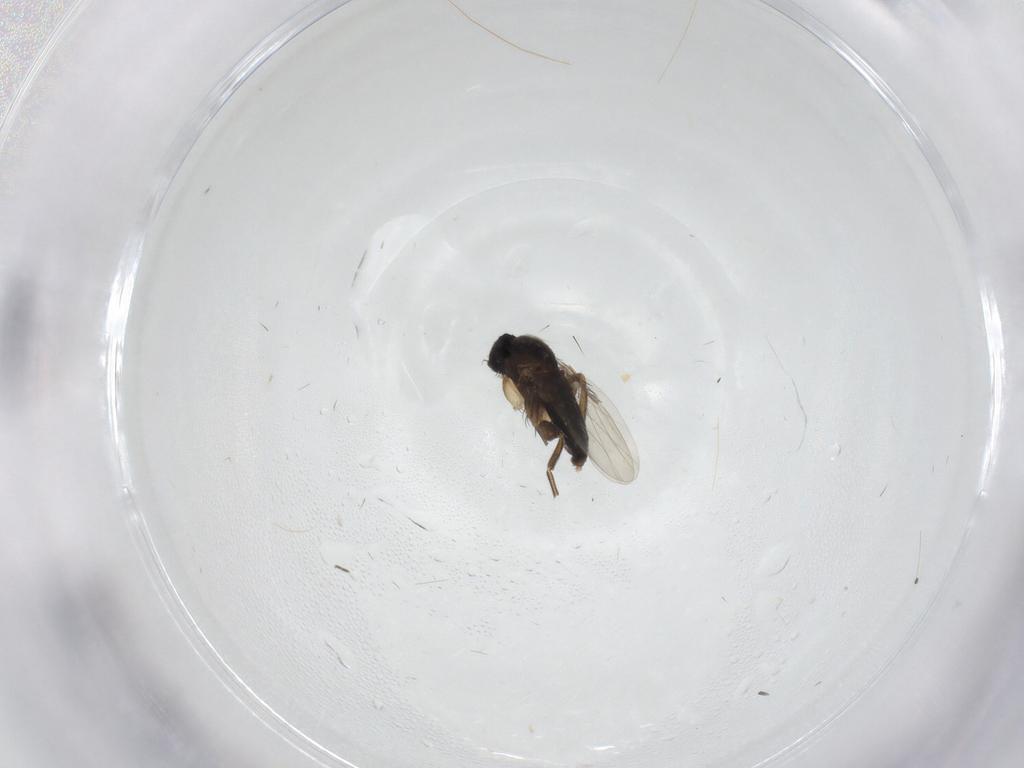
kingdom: Animalia
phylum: Arthropoda
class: Insecta
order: Diptera
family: Phoridae
